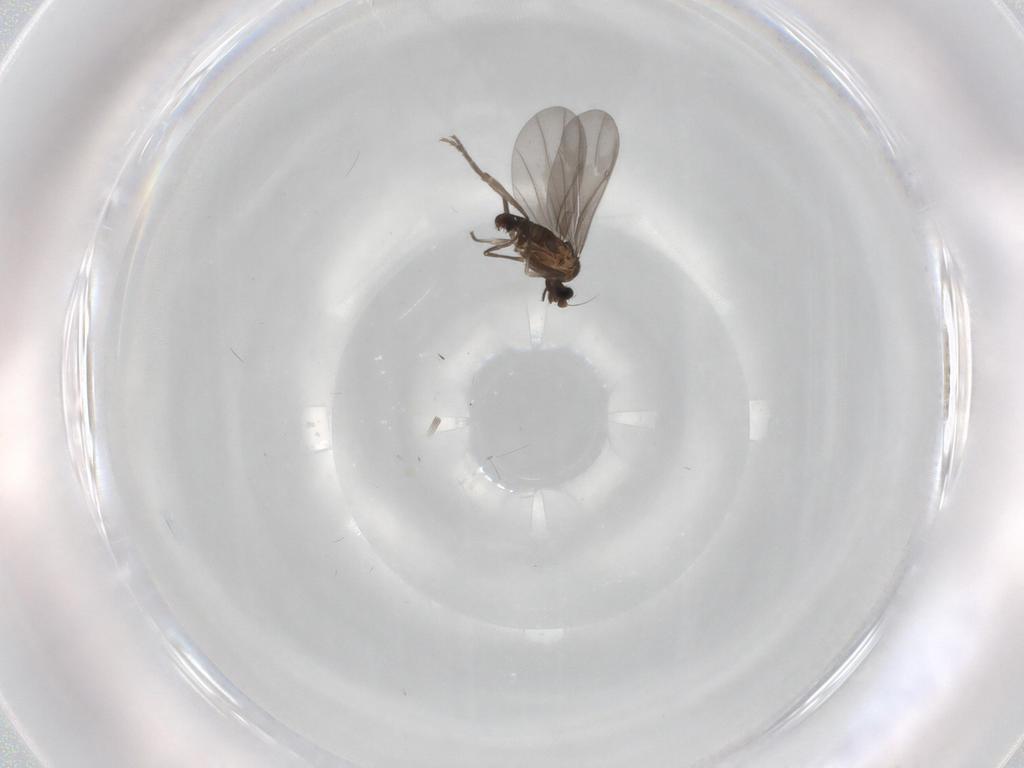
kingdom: Animalia
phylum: Arthropoda
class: Insecta
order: Diptera
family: Phoridae
